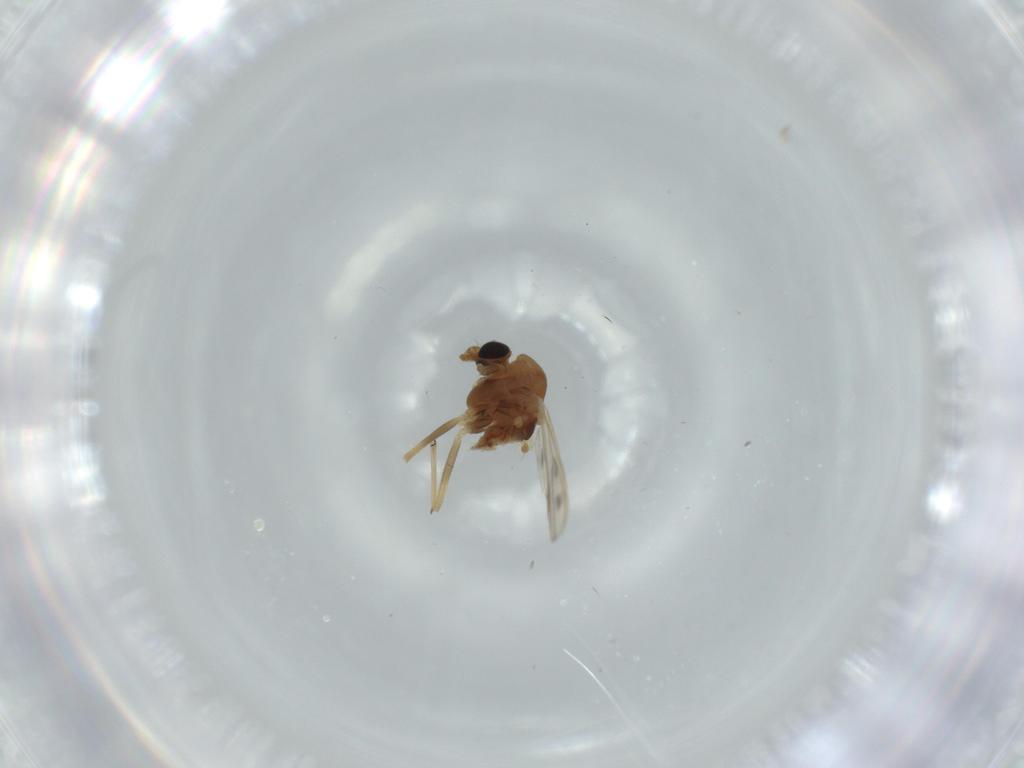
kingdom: Animalia
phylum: Arthropoda
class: Insecta
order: Diptera
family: Chironomidae
